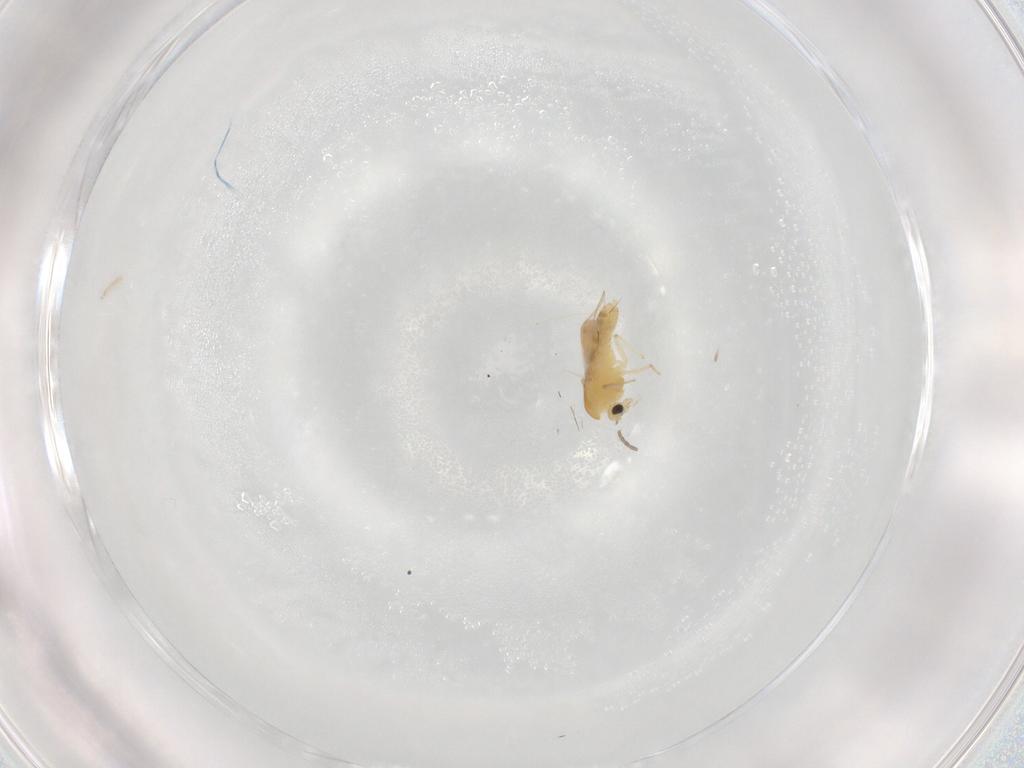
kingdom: Animalia
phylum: Arthropoda
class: Insecta
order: Diptera
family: Chironomidae
